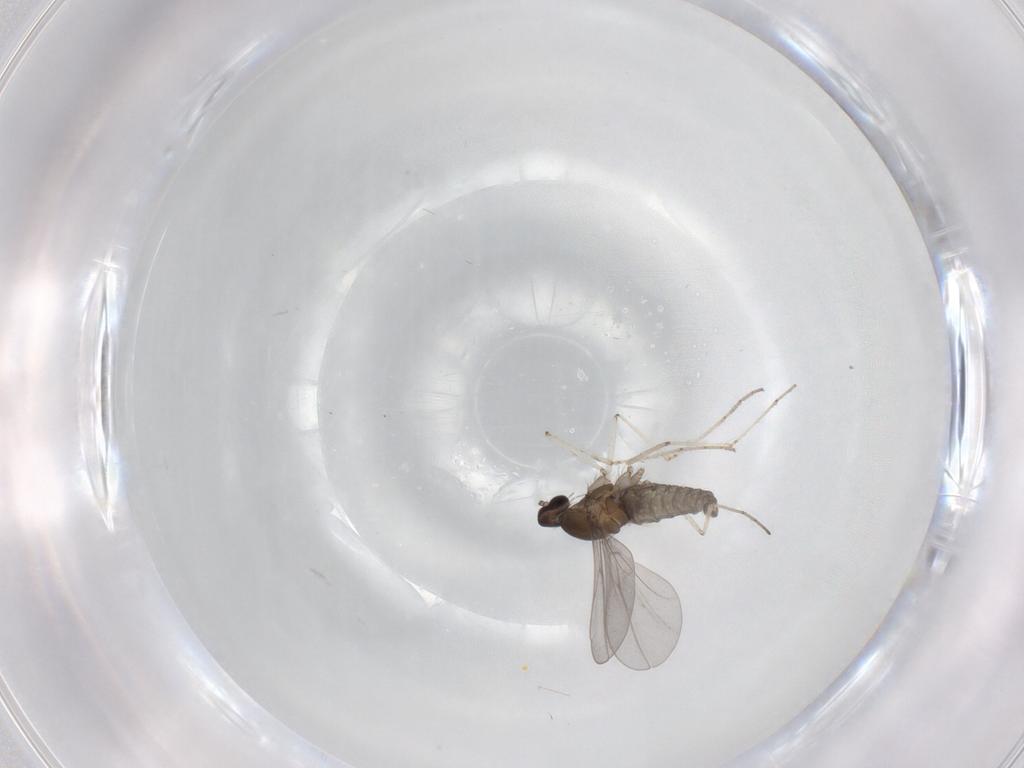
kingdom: Animalia
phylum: Arthropoda
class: Insecta
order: Diptera
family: Cecidomyiidae
